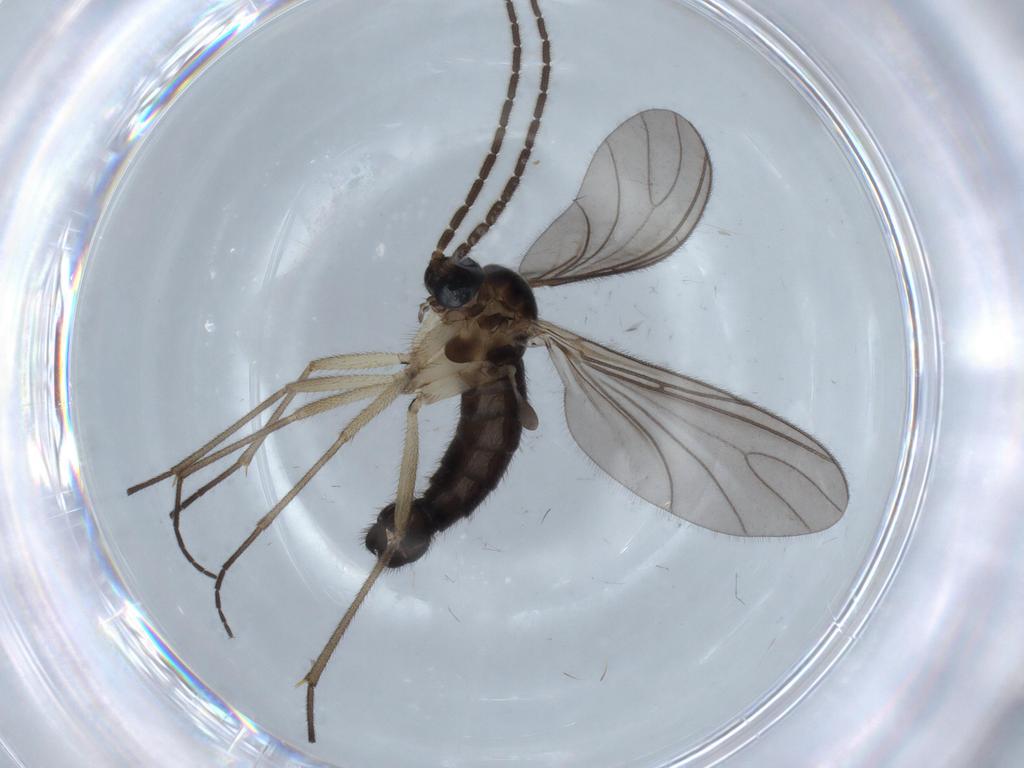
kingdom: Animalia
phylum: Arthropoda
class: Insecta
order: Diptera
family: Sciaridae
